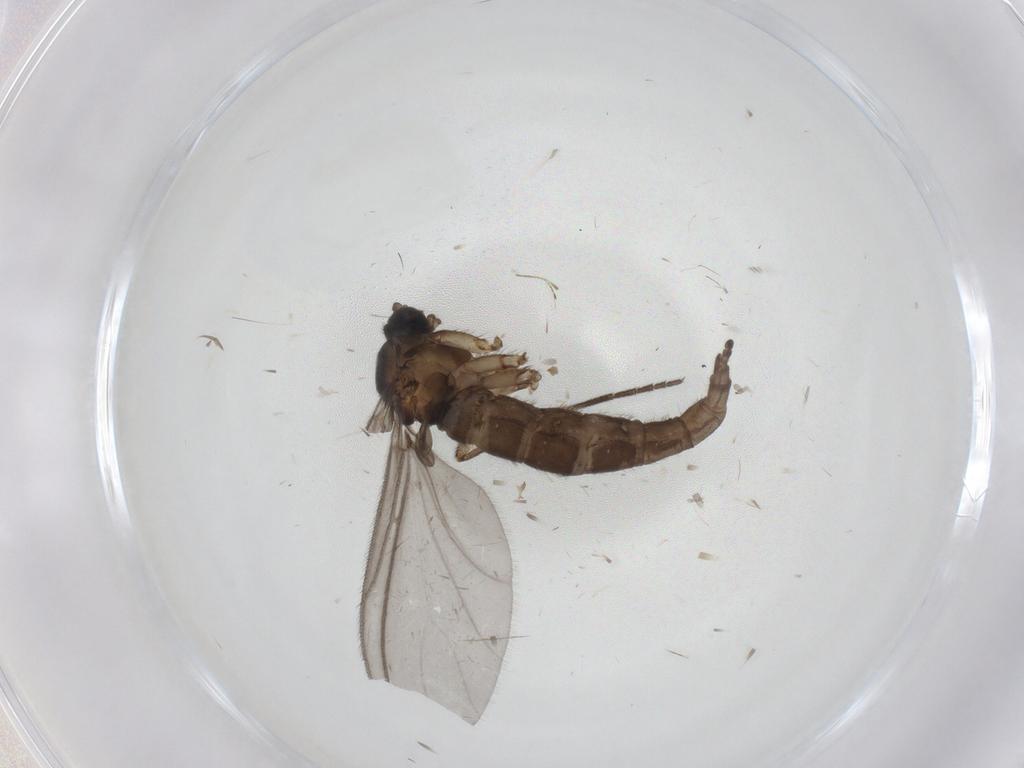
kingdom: Animalia
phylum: Arthropoda
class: Insecta
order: Diptera
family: Sciaridae
